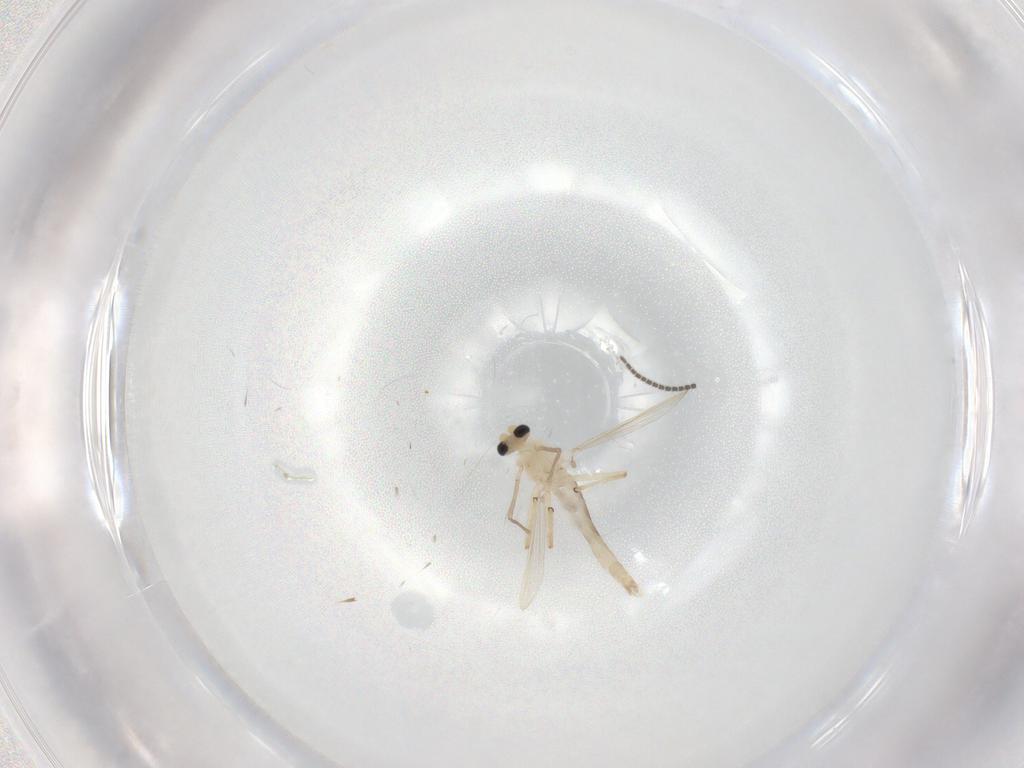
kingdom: Animalia
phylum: Arthropoda
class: Insecta
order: Diptera
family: Chironomidae
